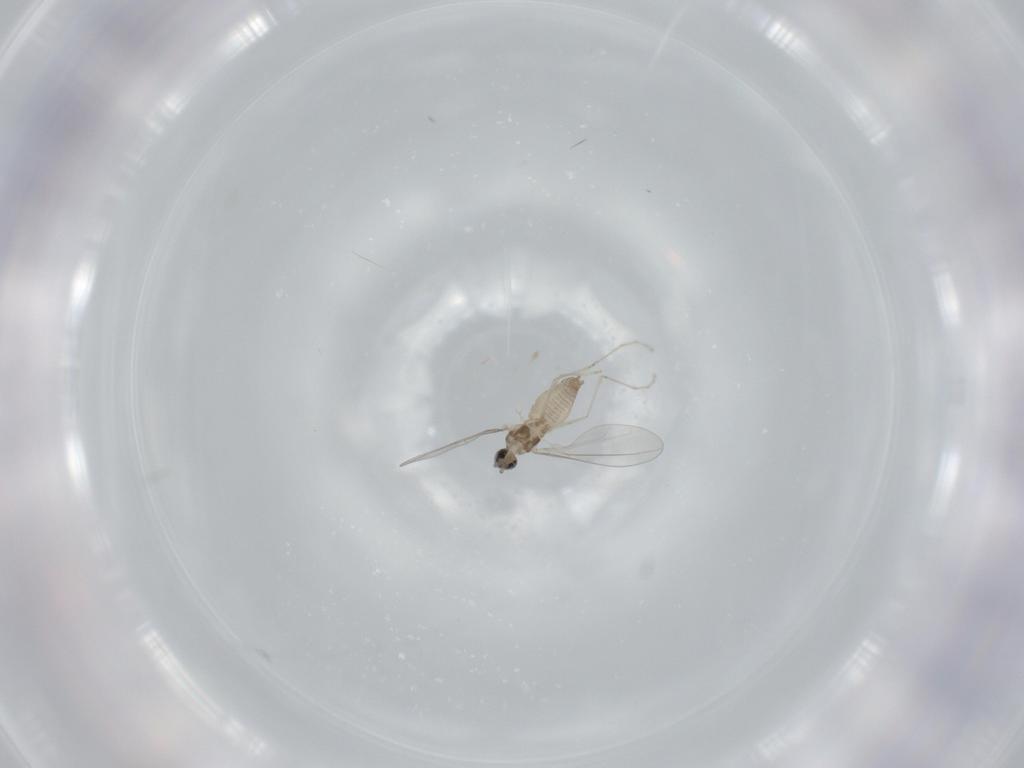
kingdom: Animalia
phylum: Arthropoda
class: Insecta
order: Diptera
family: Cecidomyiidae
